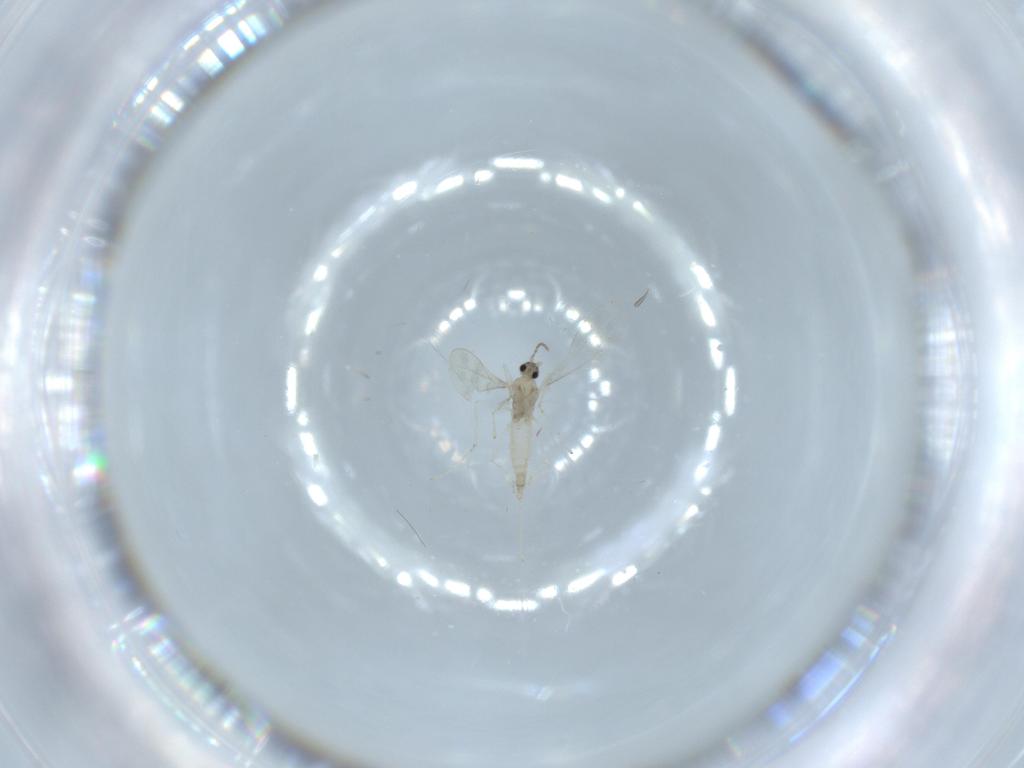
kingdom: Animalia
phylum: Arthropoda
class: Insecta
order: Diptera
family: Cecidomyiidae
